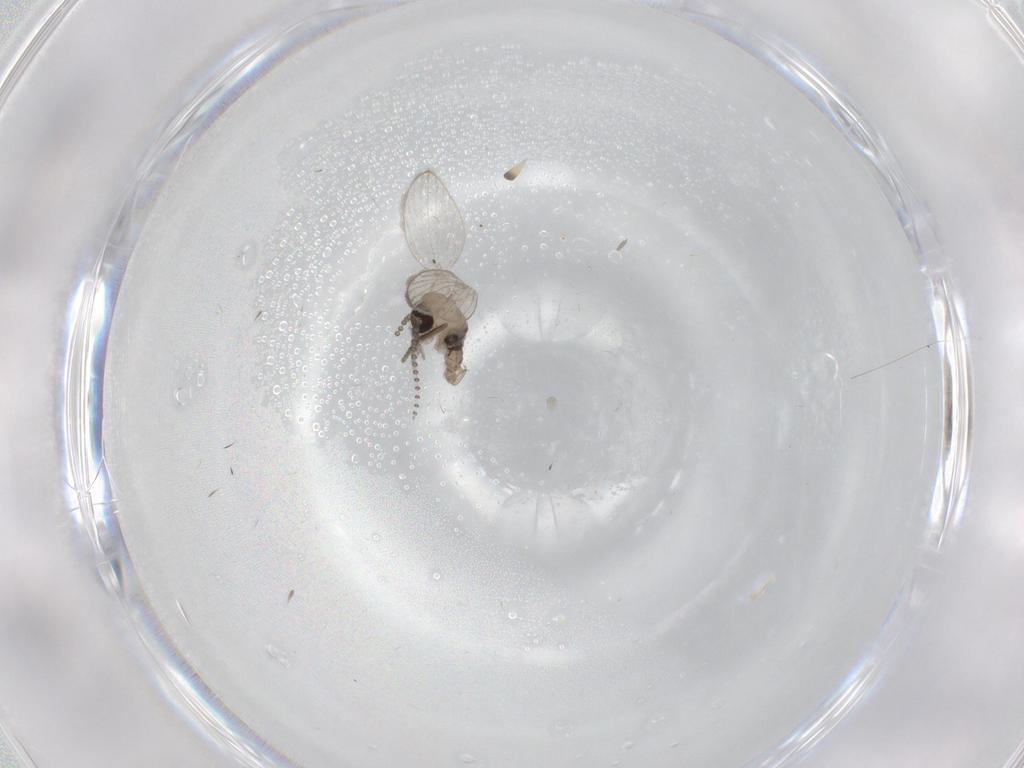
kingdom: Animalia
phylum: Arthropoda
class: Insecta
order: Diptera
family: Psychodidae
